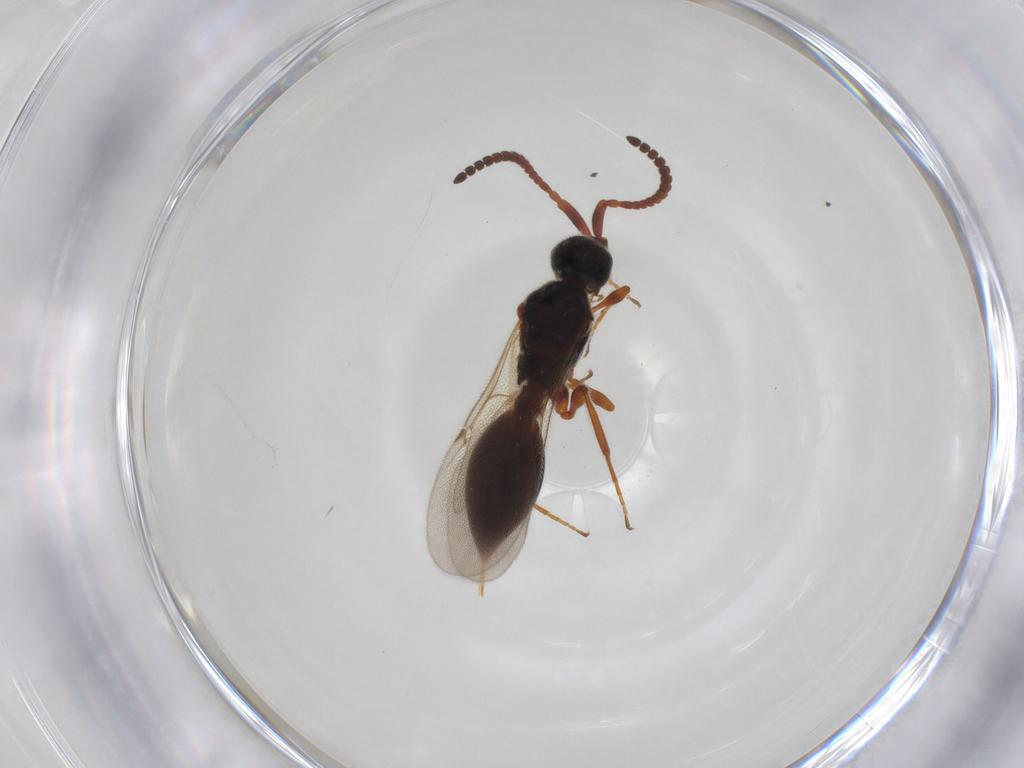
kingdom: Animalia
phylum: Arthropoda
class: Insecta
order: Hymenoptera
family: Diapriidae
